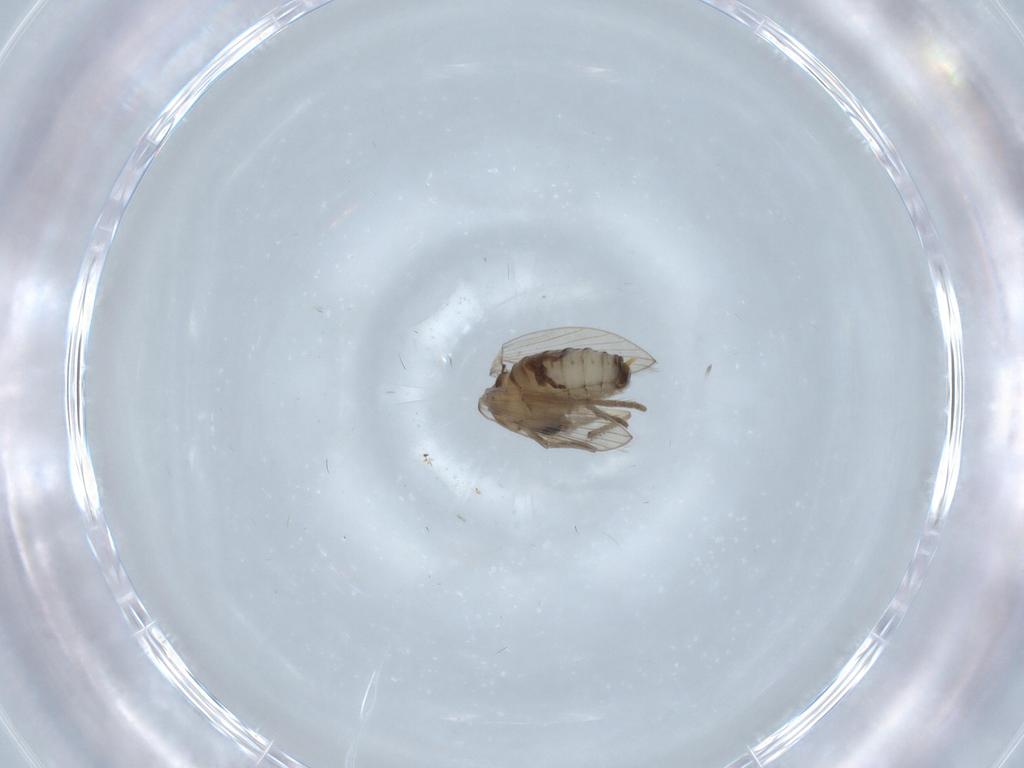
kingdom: Animalia
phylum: Arthropoda
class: Insecta
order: Diptera
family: Psychodidae
